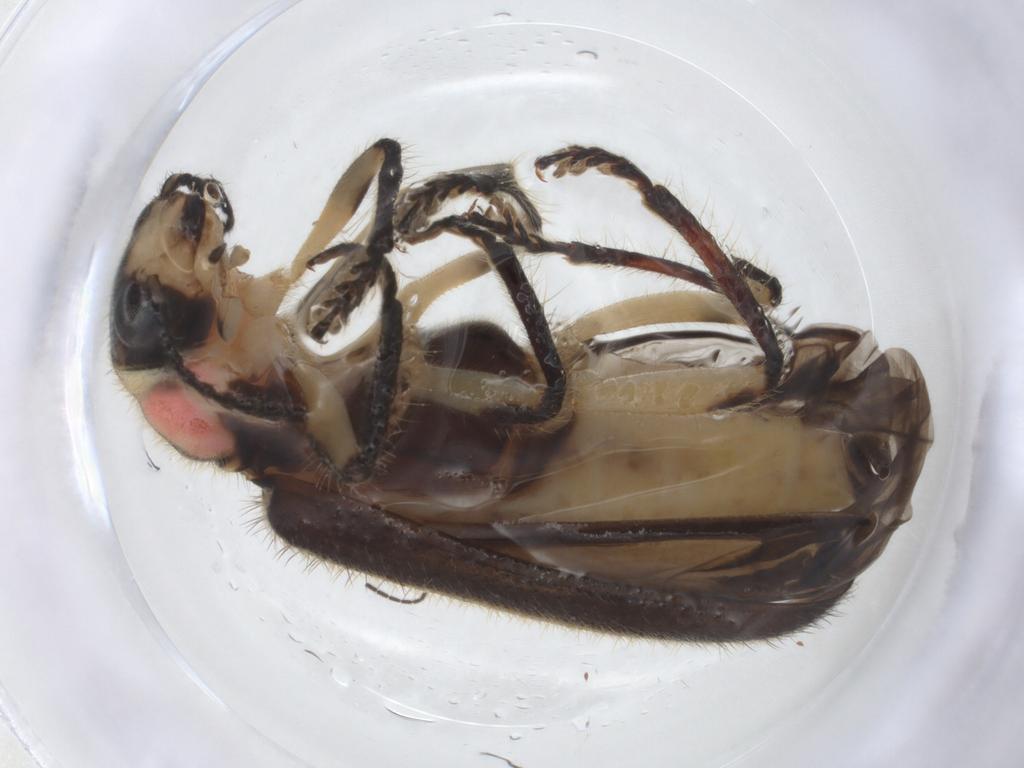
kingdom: Animalia
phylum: Arthropoda
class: Insecta
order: Coleoptera
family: Cleridae
